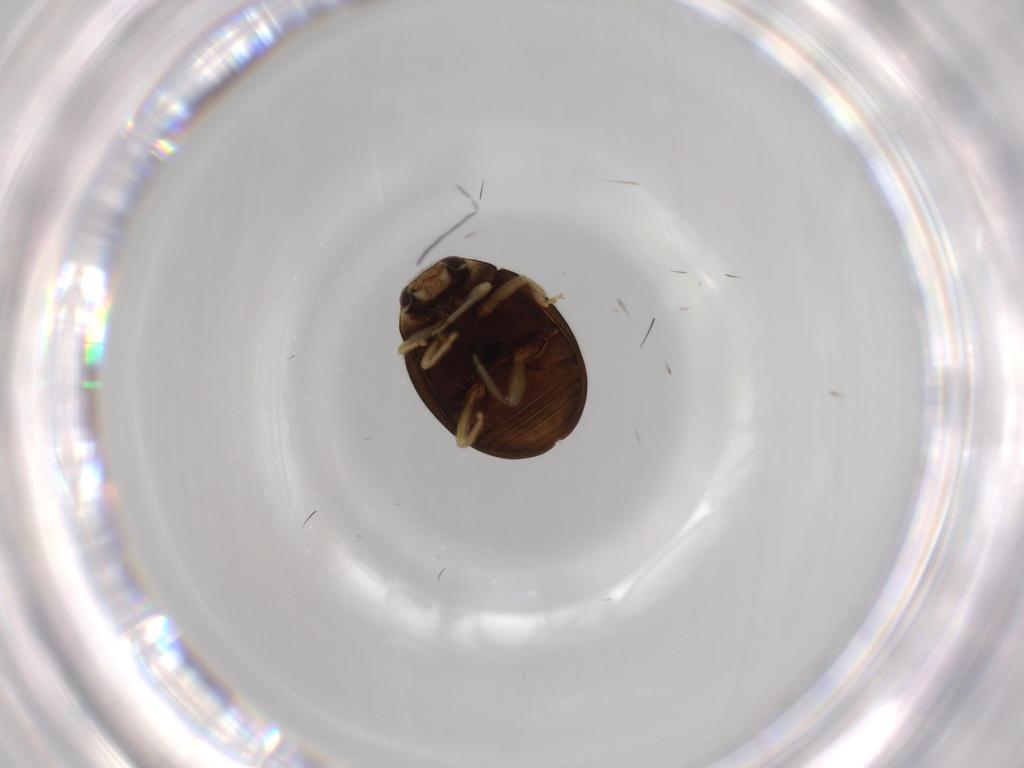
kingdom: Animalia
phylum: Arthropoda
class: Insecta
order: Coleoptera
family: Coccinellidae
